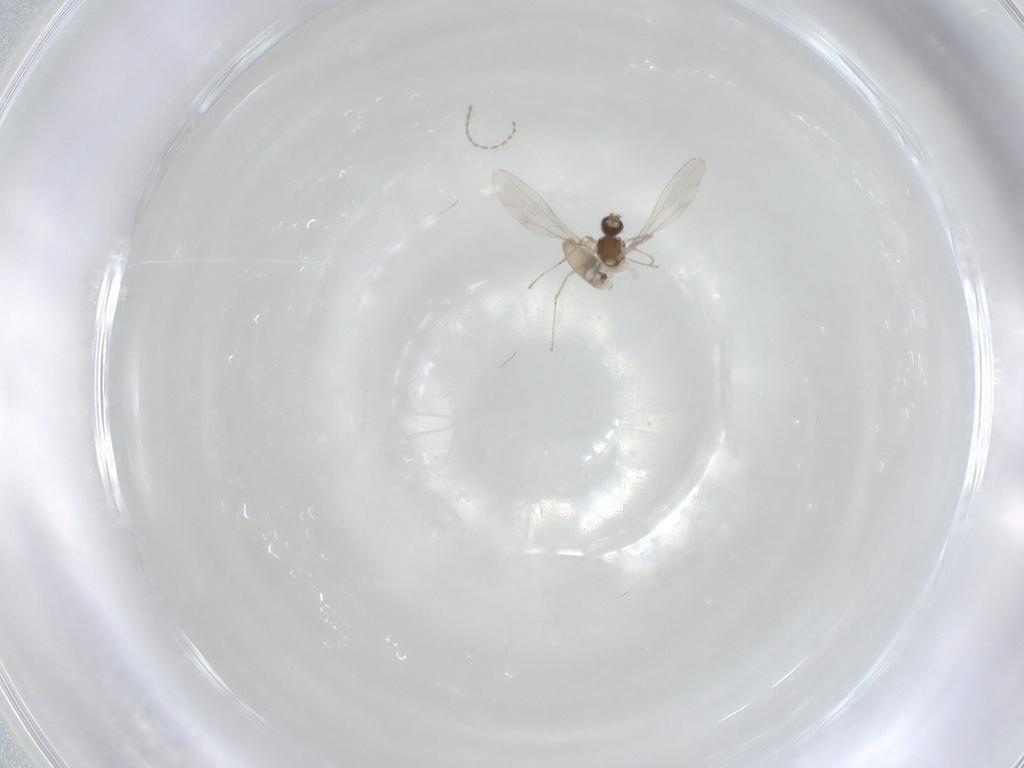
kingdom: Animalia
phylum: Arthropoda
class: Insecta
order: Diptera
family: Cecidomyiidae
